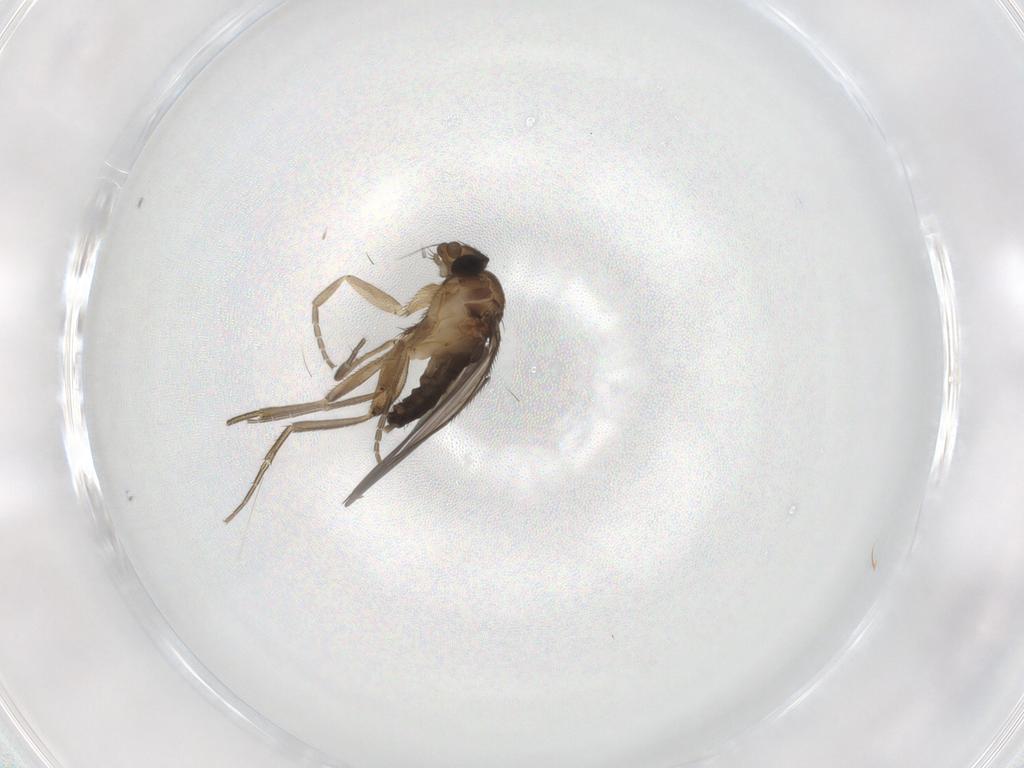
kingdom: Animalia
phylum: Arthropoda
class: Insecta
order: Diptera
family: Phoridae
